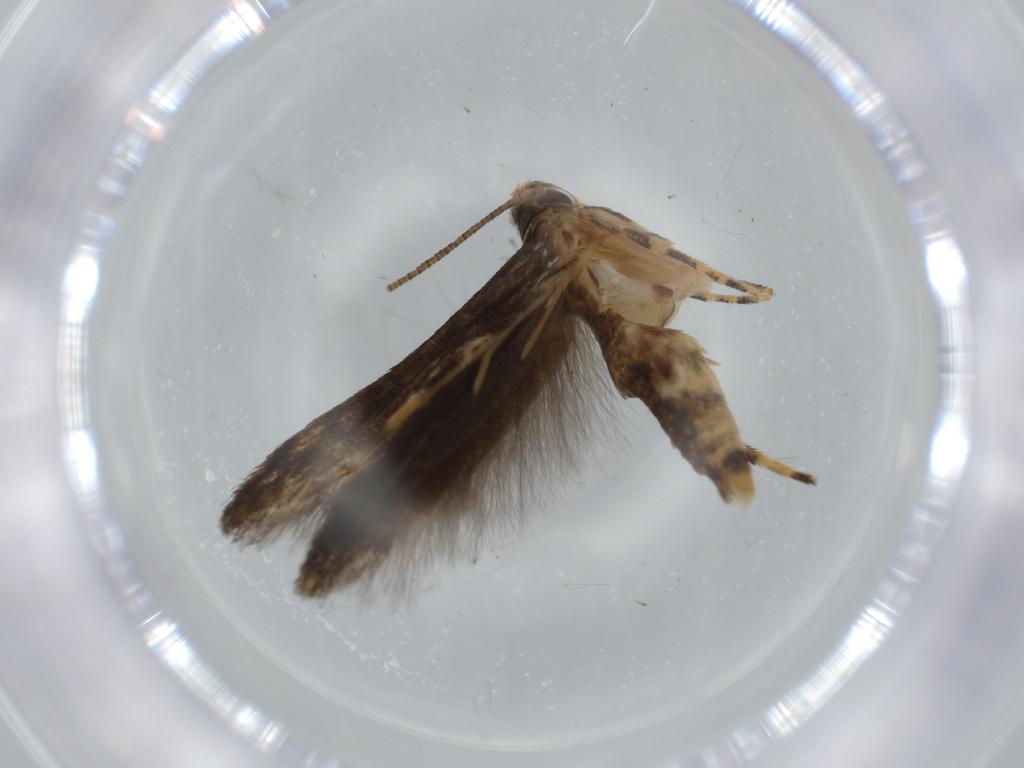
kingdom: Animalia
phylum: Arthropoda
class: Insecta
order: Lepidoptera
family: Momphidae
